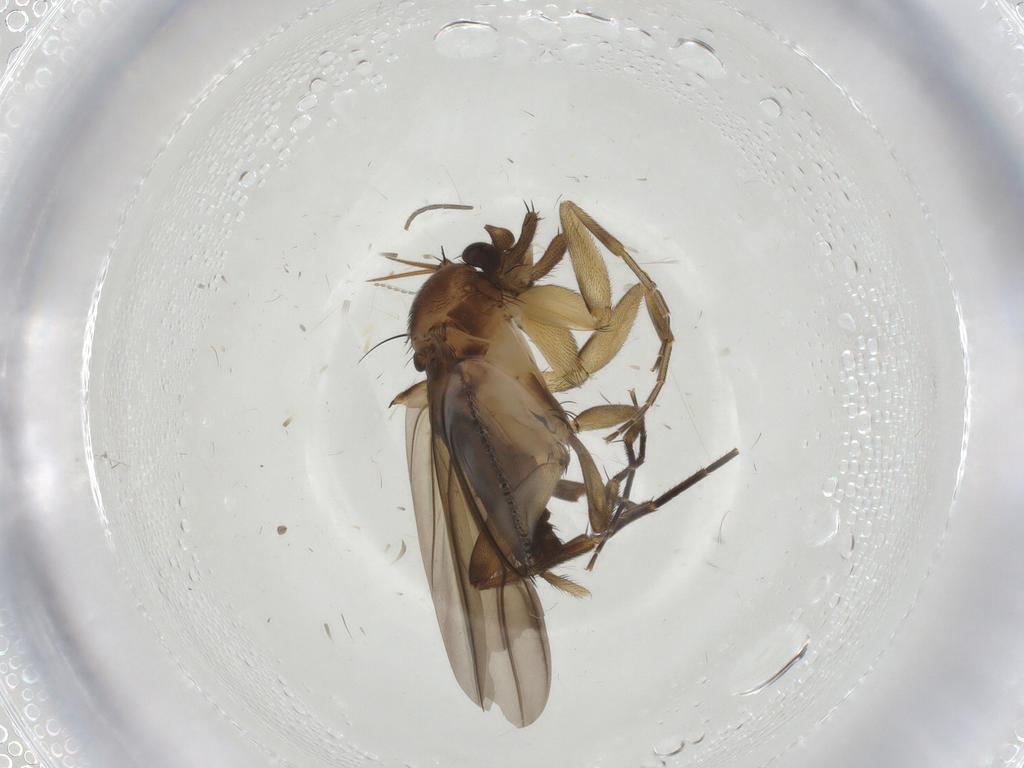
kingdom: Animalia
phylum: Arthropoda
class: Insecta
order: Diptera
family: Phoridae
